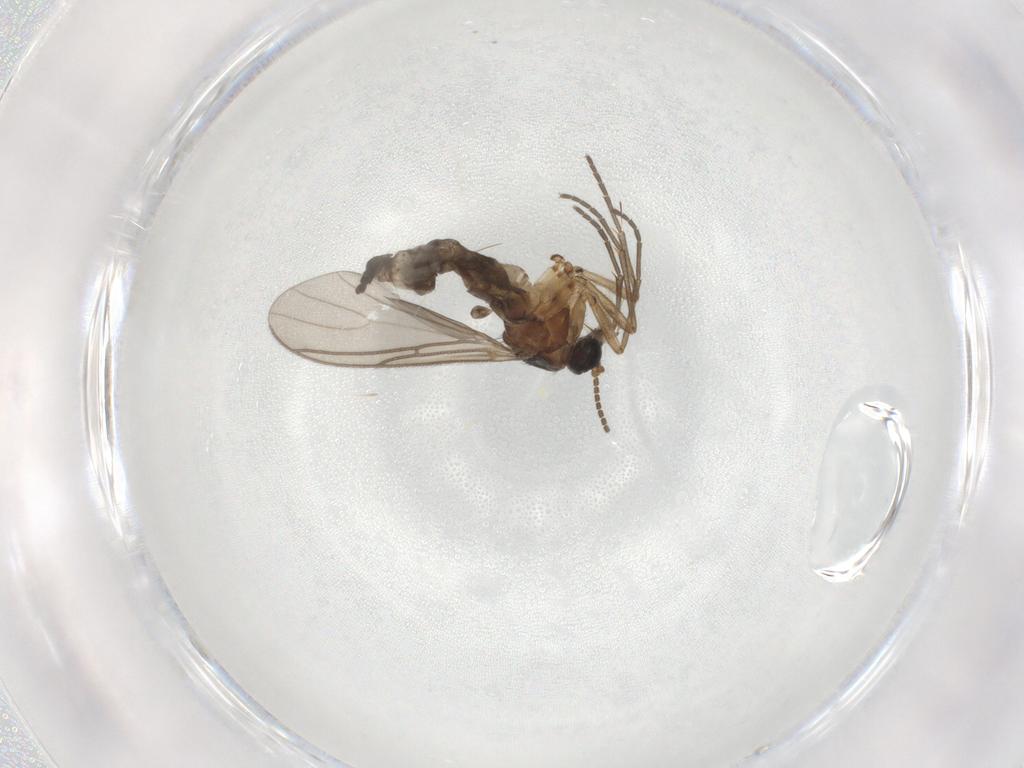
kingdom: Animalia
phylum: Arthropoda
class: Insecta
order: Diptera
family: Sciaridae
